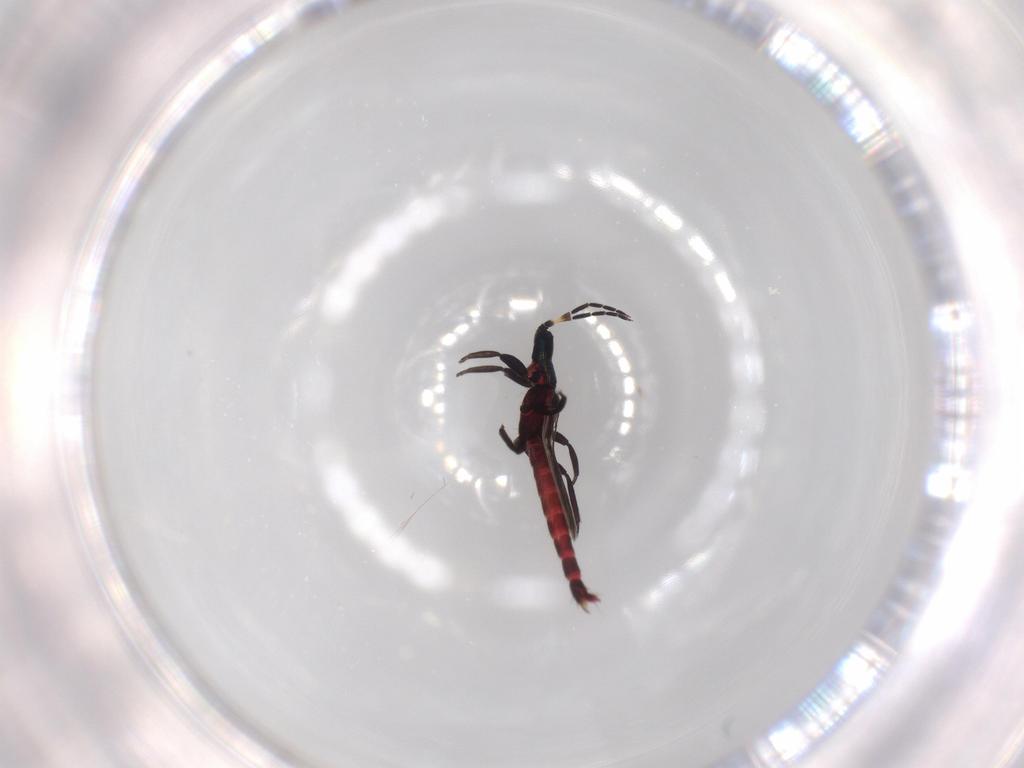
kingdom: Animalia
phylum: Arthropoda
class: Insecta
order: Thysanoptera
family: Aeolothripidae
